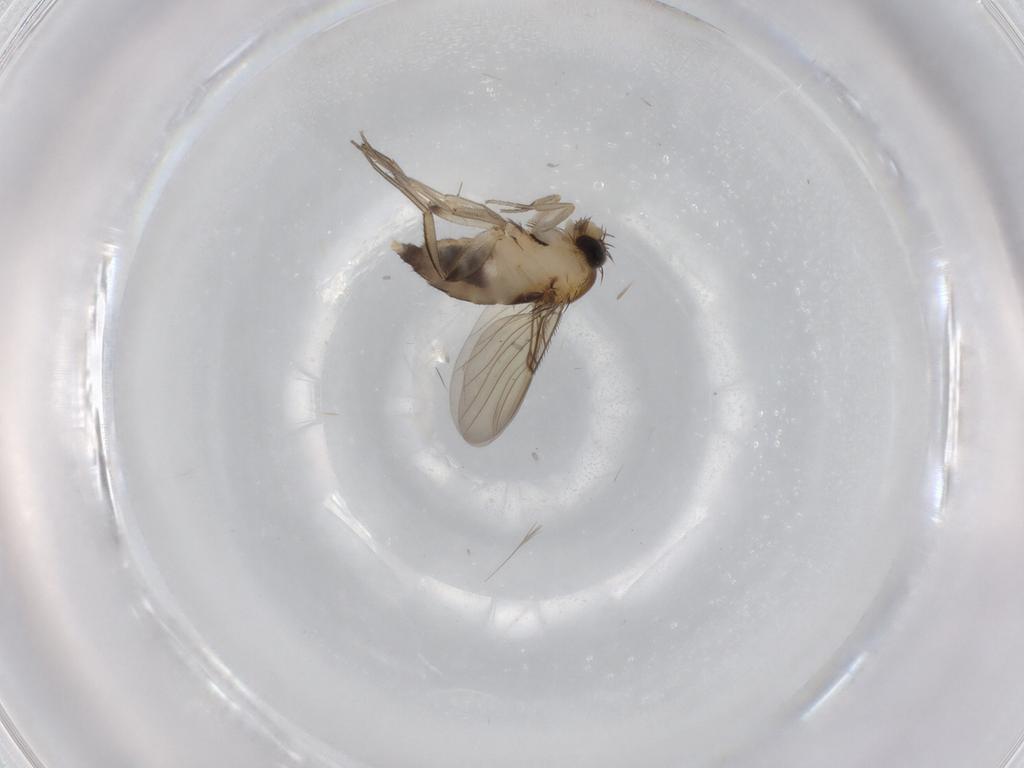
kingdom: Animalia
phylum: Arthropoda
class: Insecta
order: Diptera
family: Phoridae
